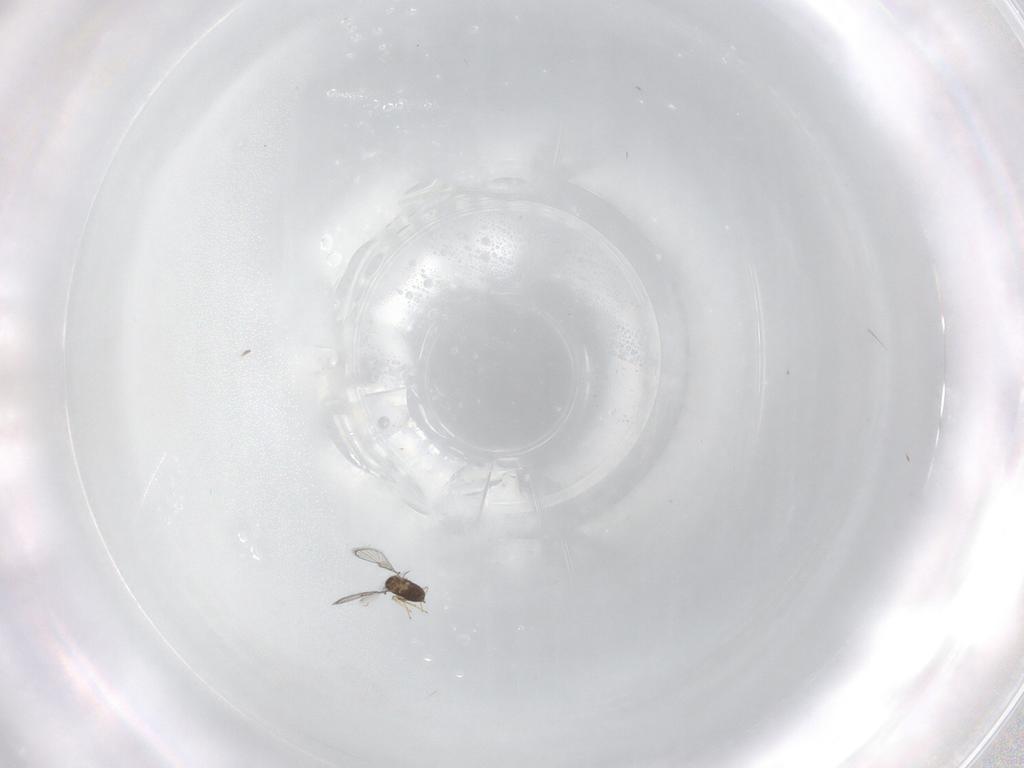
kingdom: Animalia
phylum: Arthropoda
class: Insecta
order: Hymenoptera
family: Trichogrammatidae
